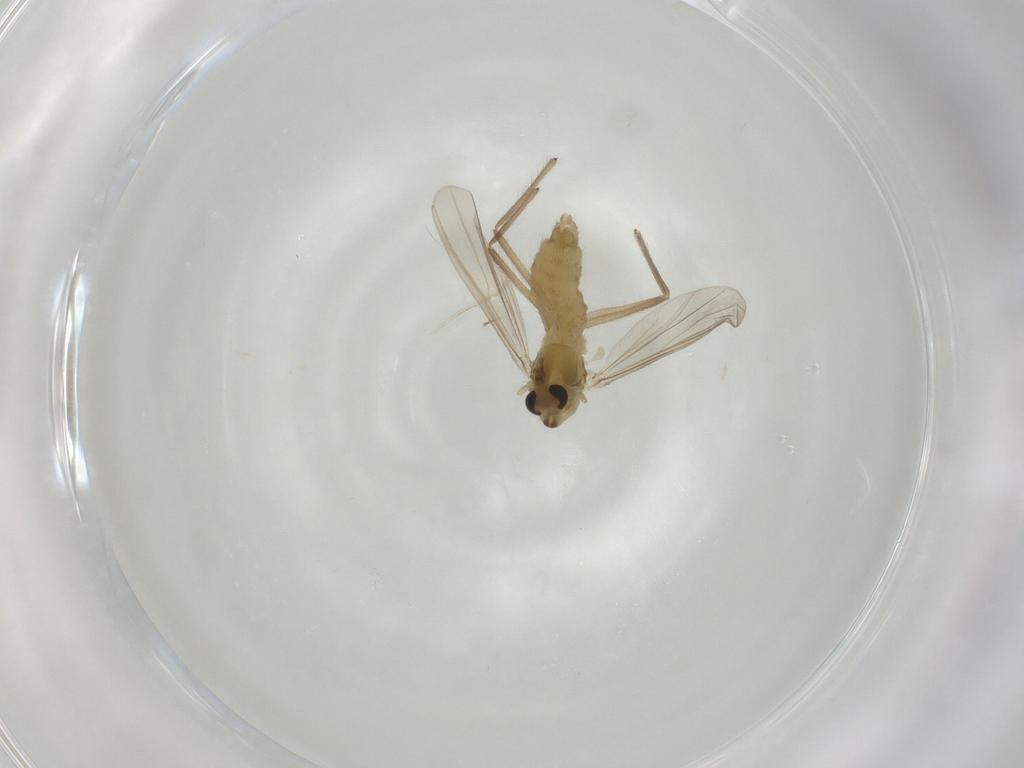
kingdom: Animalia
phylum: Arthropoda
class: Insecta
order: Diptera
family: Chironomidae
